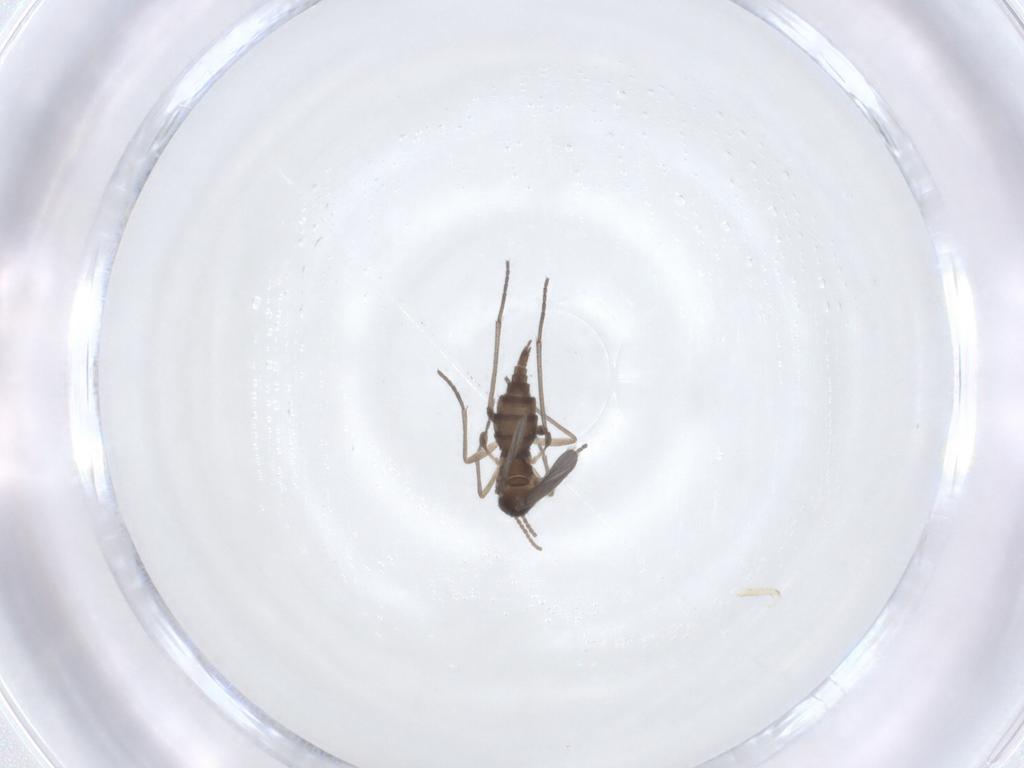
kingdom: Animalia
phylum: Arthropoda
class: Insecta
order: Diptera
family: Sciaridae
